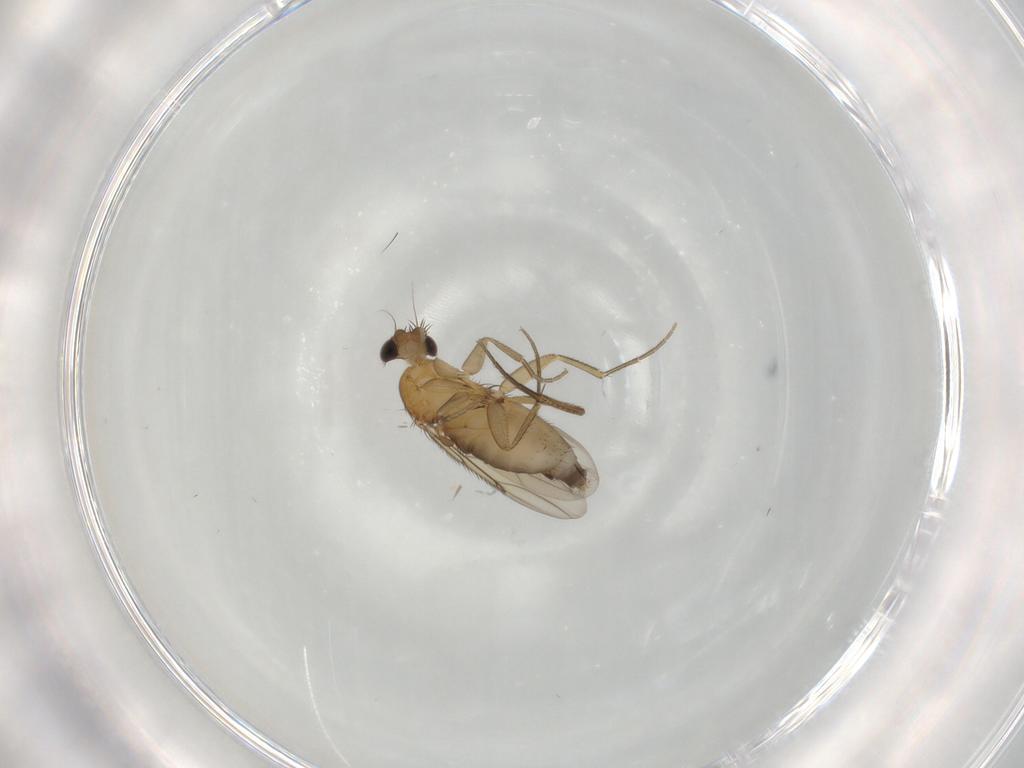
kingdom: Animalia
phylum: Arthropoda
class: Insecta
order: Diptera
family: Phoridae
